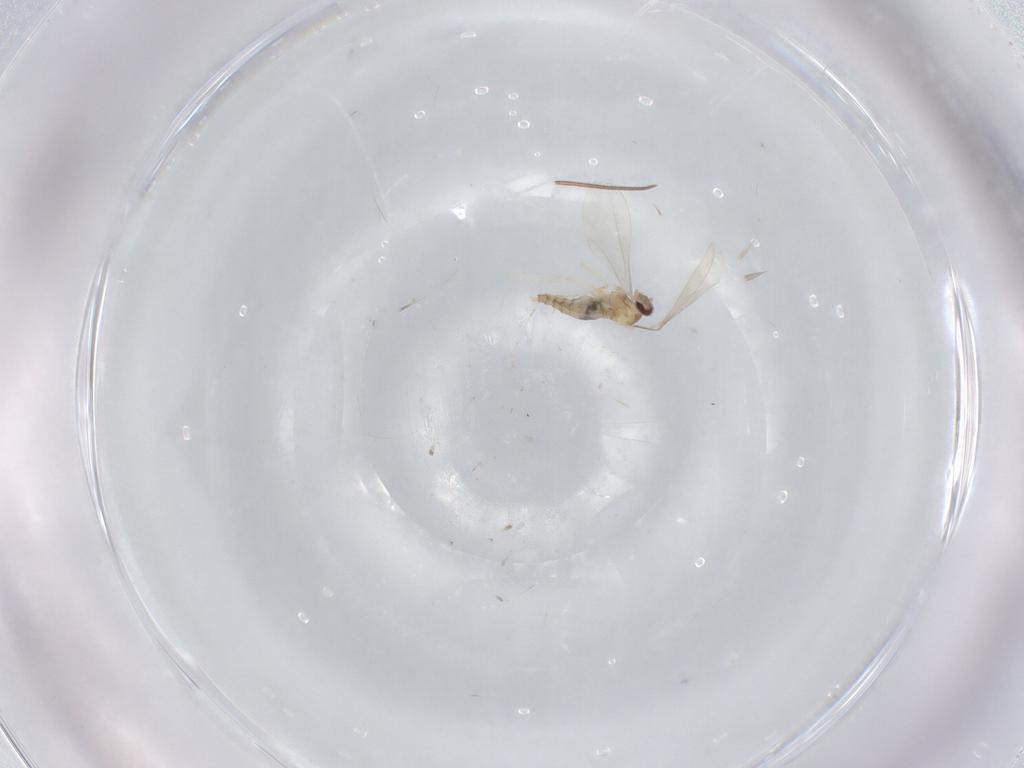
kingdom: Animalia
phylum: Arthropoda
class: Insecta
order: Diptera
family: Cecidomyiidae
